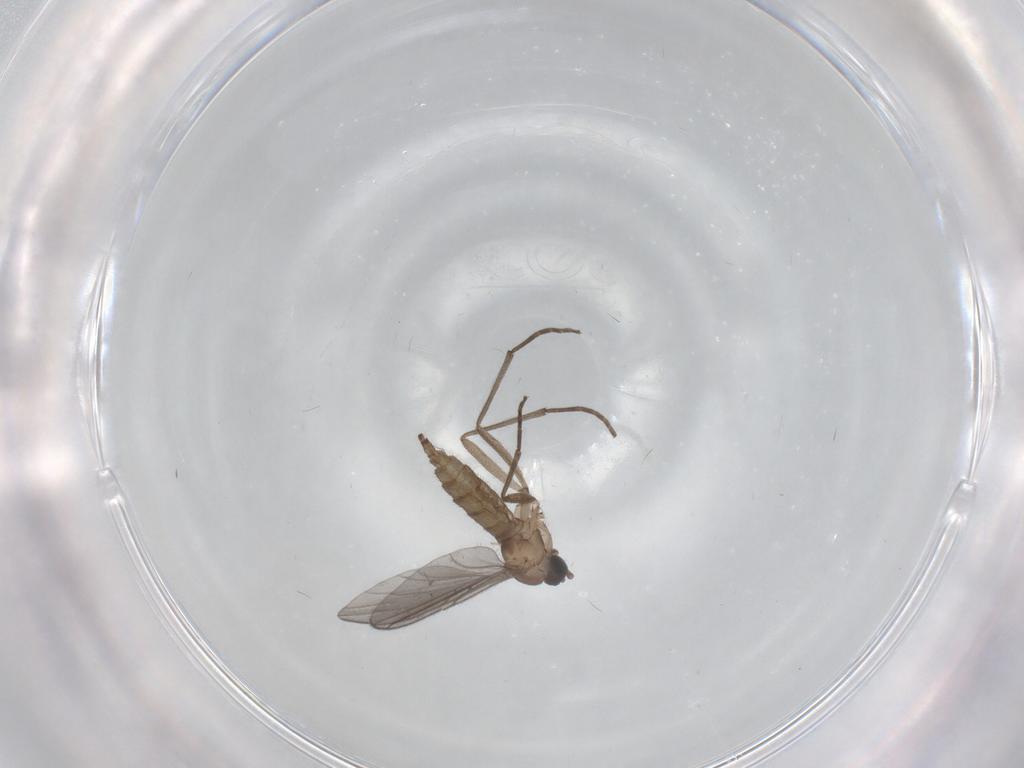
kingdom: Animalia
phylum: Arthropoda
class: Insecta
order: Diptera
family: Sciaridae
